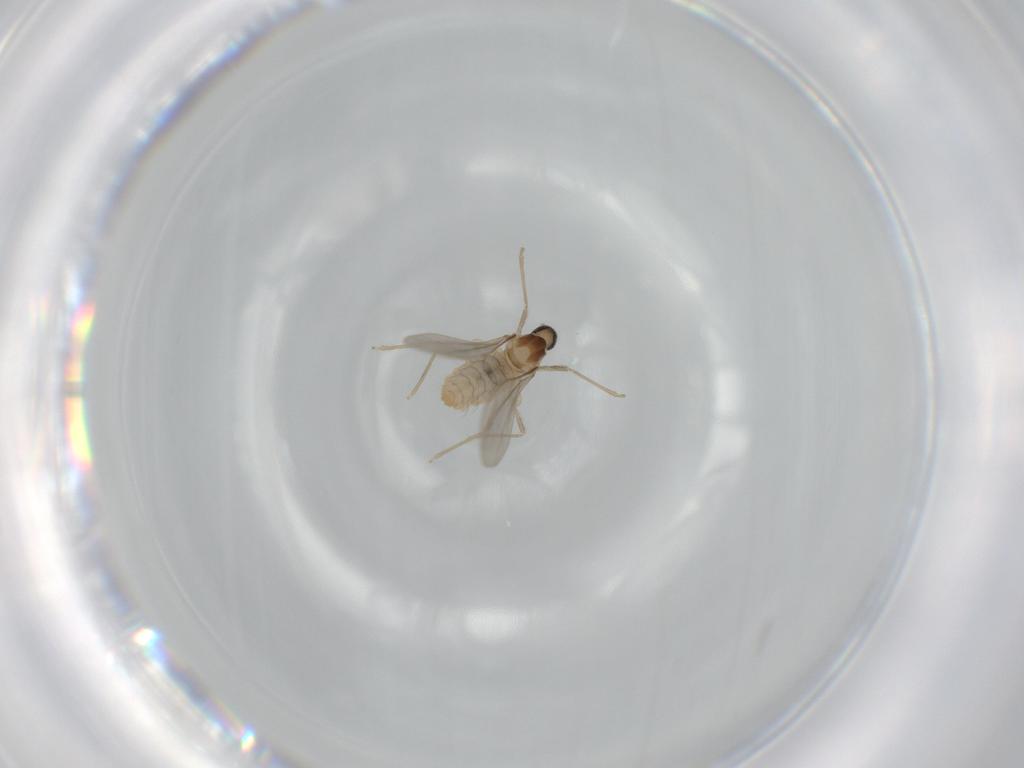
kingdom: Animalia
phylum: Arthropoda
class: Insecta
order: Diptera
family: Cecidomyiidae
